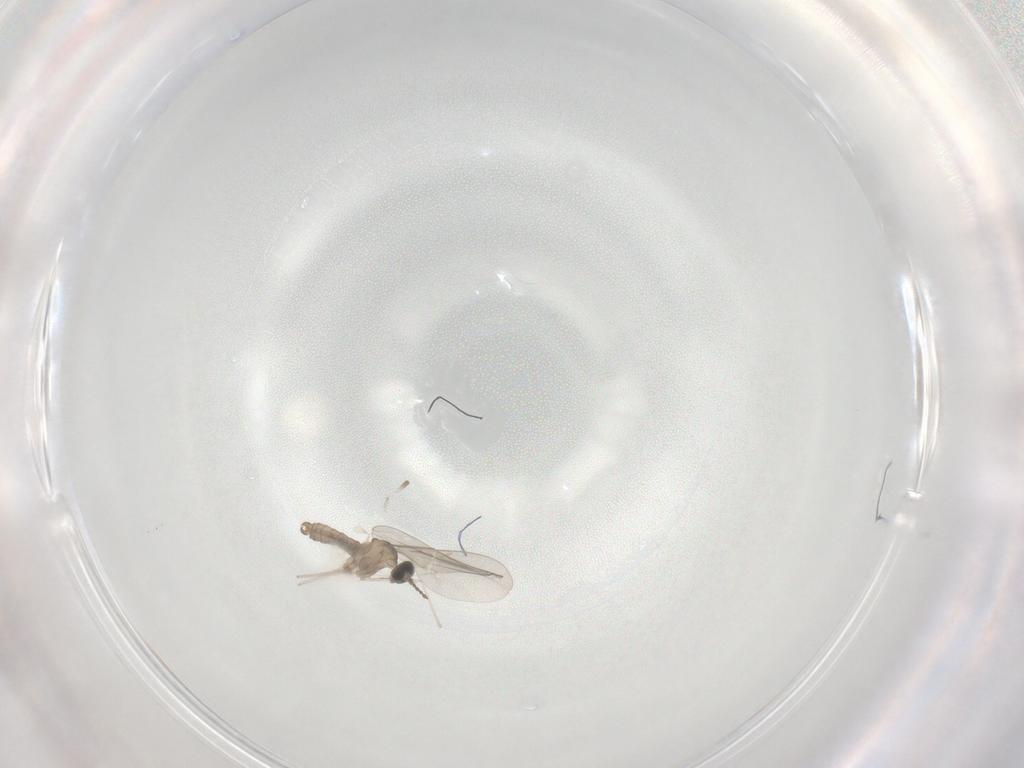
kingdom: Animalia
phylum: Arthropoda
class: Insecta
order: Diptera
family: Cecidomyiidae
